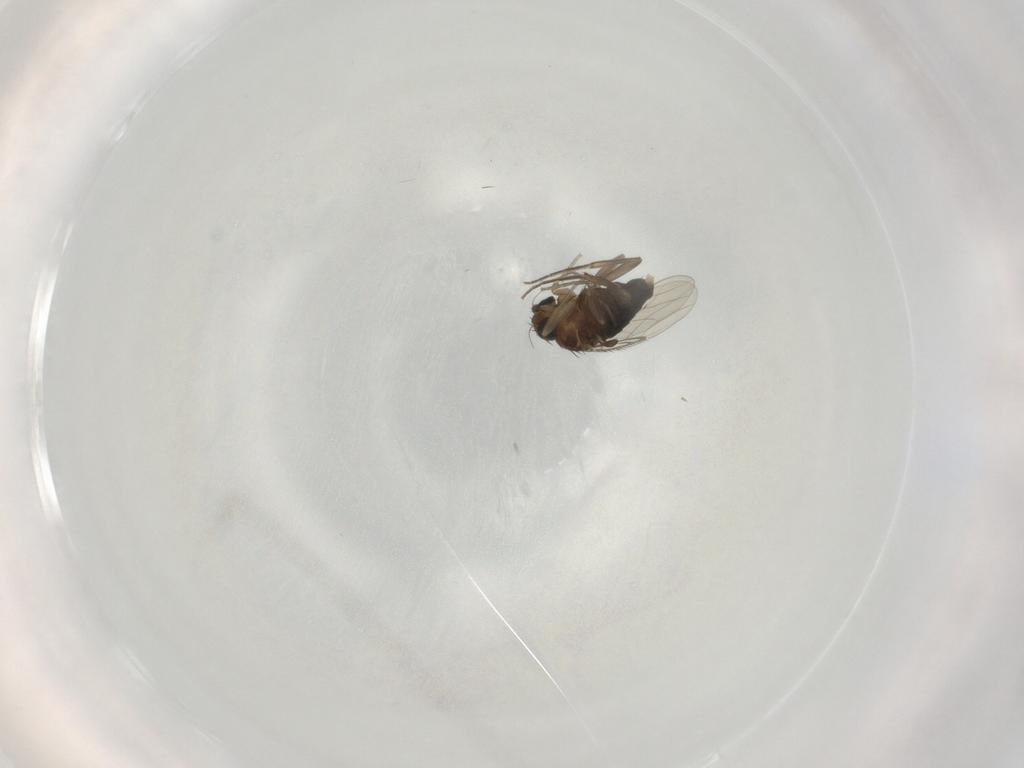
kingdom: Animalia
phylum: Arthropoda
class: Insecta
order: Diptera
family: Phoridae
